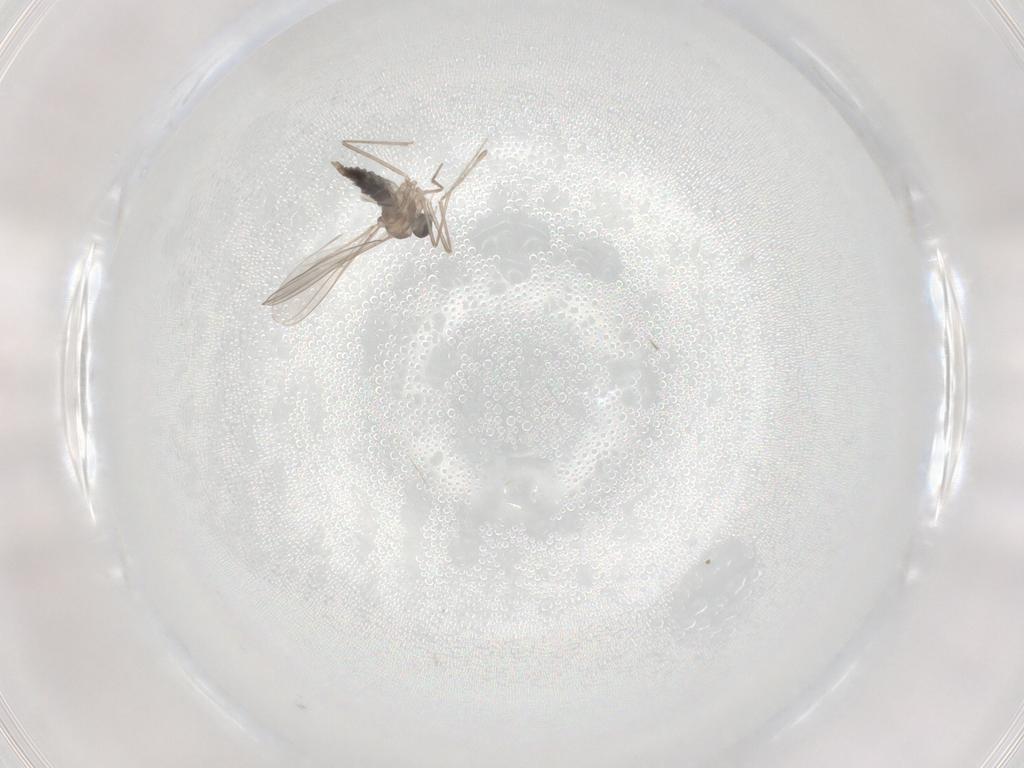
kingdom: Animalia
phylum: Arthropoda
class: Insecta
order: Diptera
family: Cecidomyiidae
